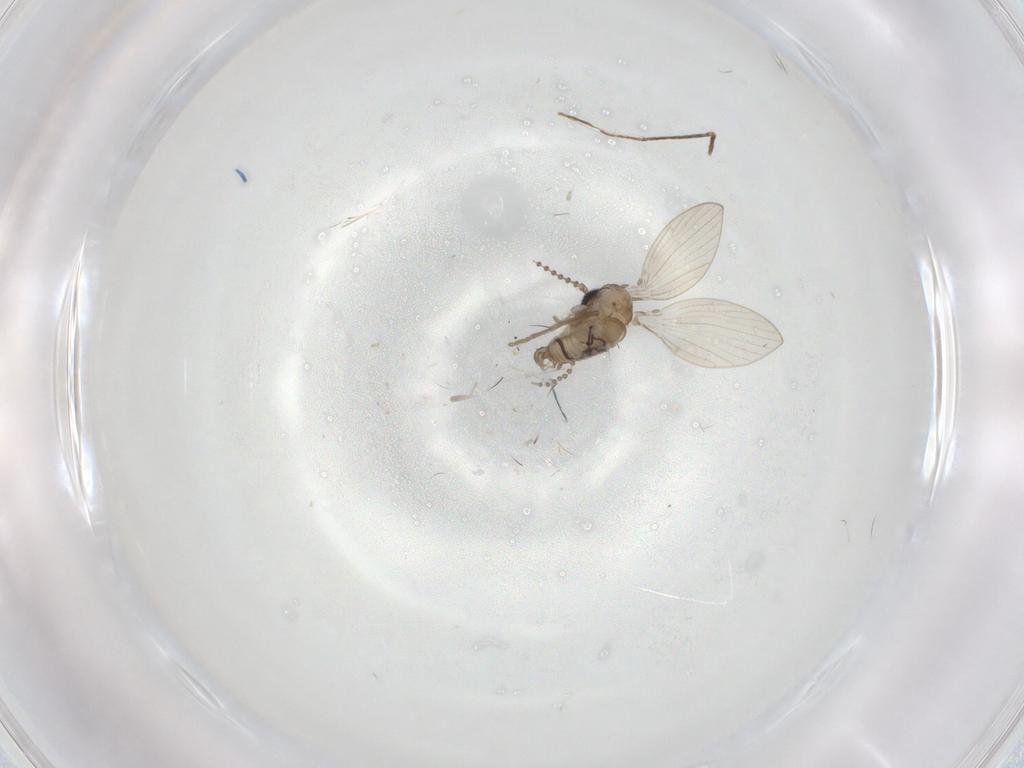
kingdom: Animalia
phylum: Arthropoda
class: Insecta
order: Diptera
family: Dolichopodidae
